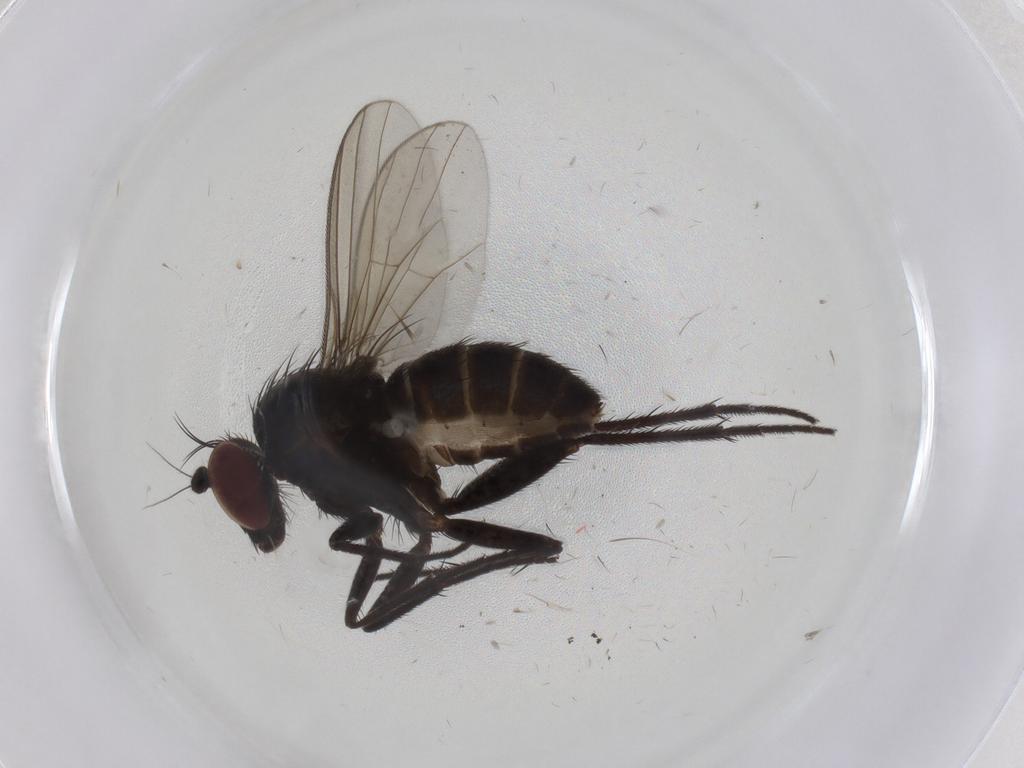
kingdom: Animalia
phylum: Arthropoda
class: Insecta
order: Diptera
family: Dolichopodidae
